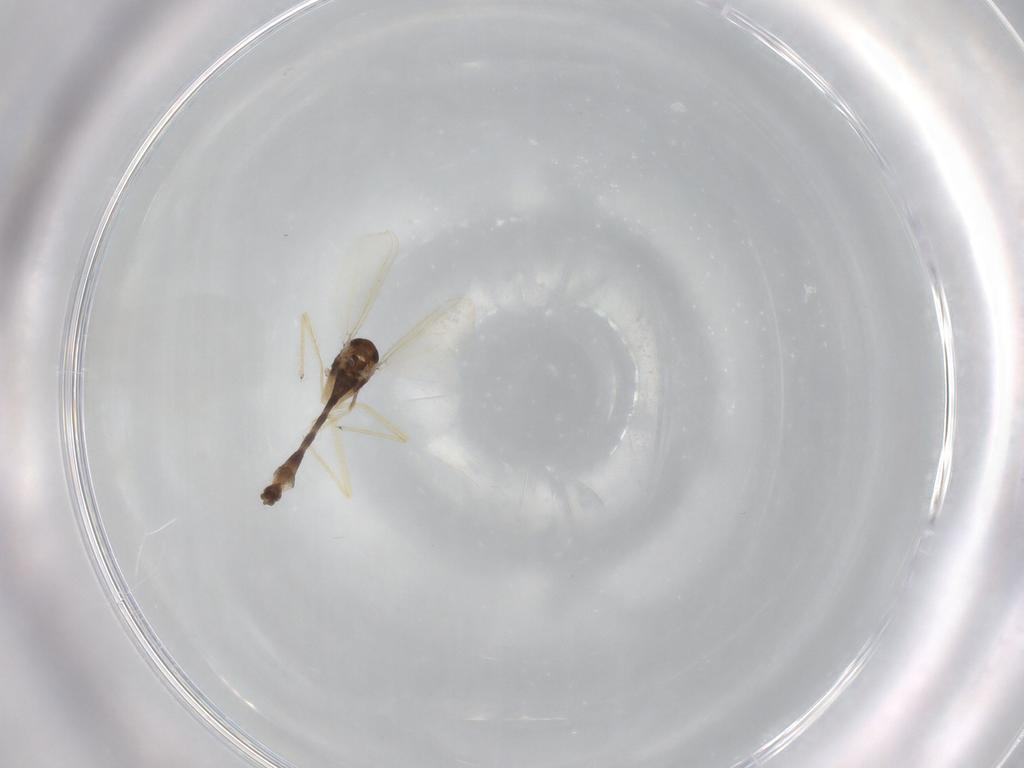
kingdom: Animalia
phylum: Arthropoda
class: Insecta
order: Diptera
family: Chironomidae
